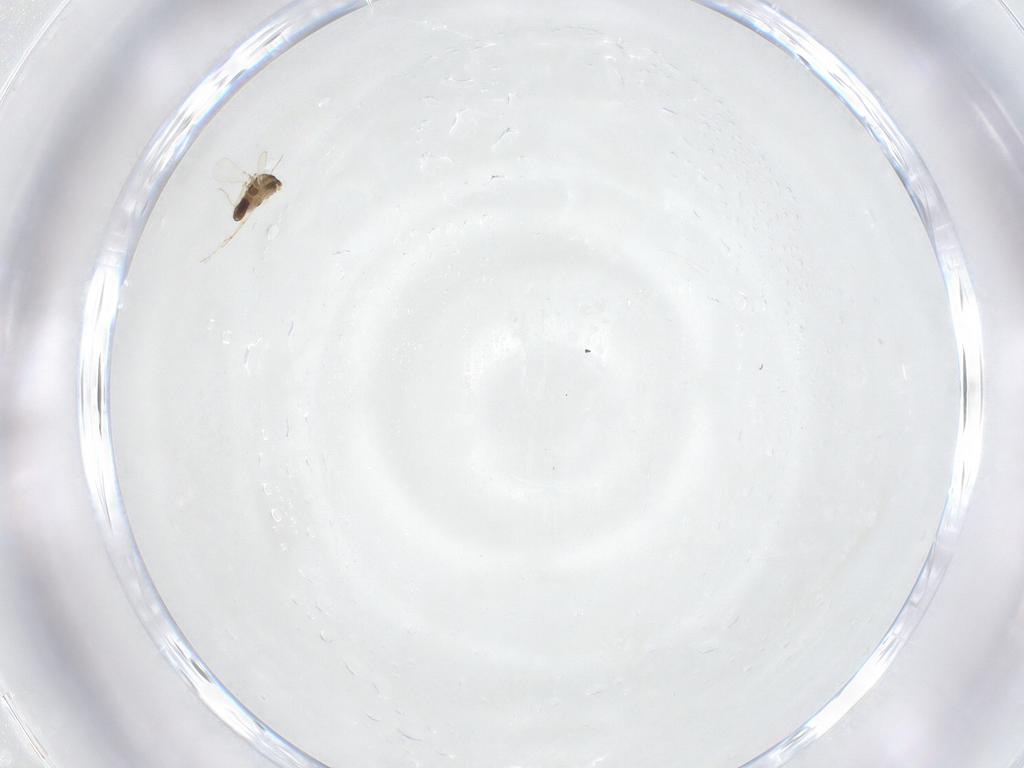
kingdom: Animalia
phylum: Arthropoda
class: Insecta
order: Diptera
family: Chironomidae
